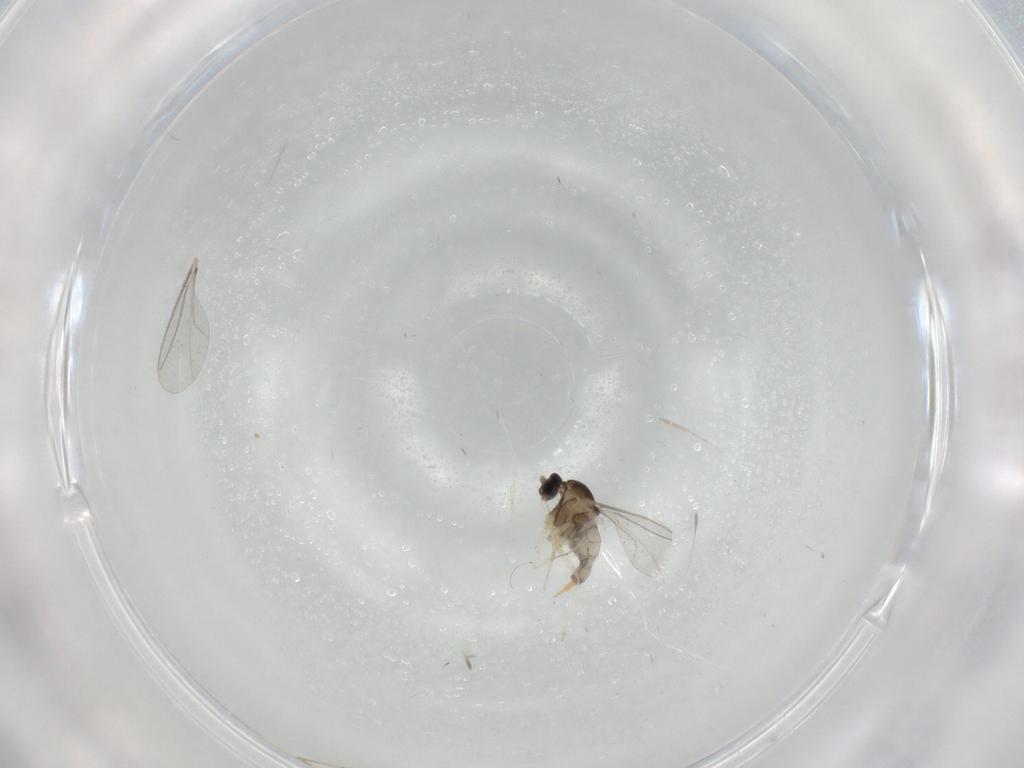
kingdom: Animalia
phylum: Arthropoda
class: Insecta
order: Diptera
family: Cecidomyiidae
